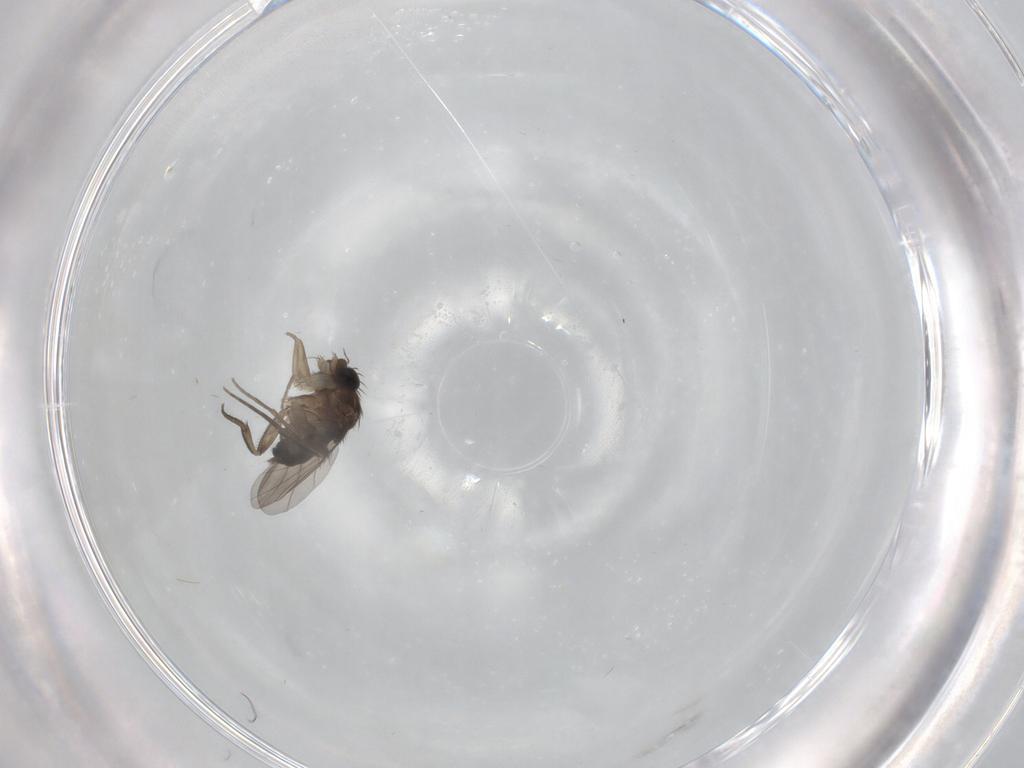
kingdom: Animalia
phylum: Arthropoda
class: Insecta
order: Diptera
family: Phoridae
